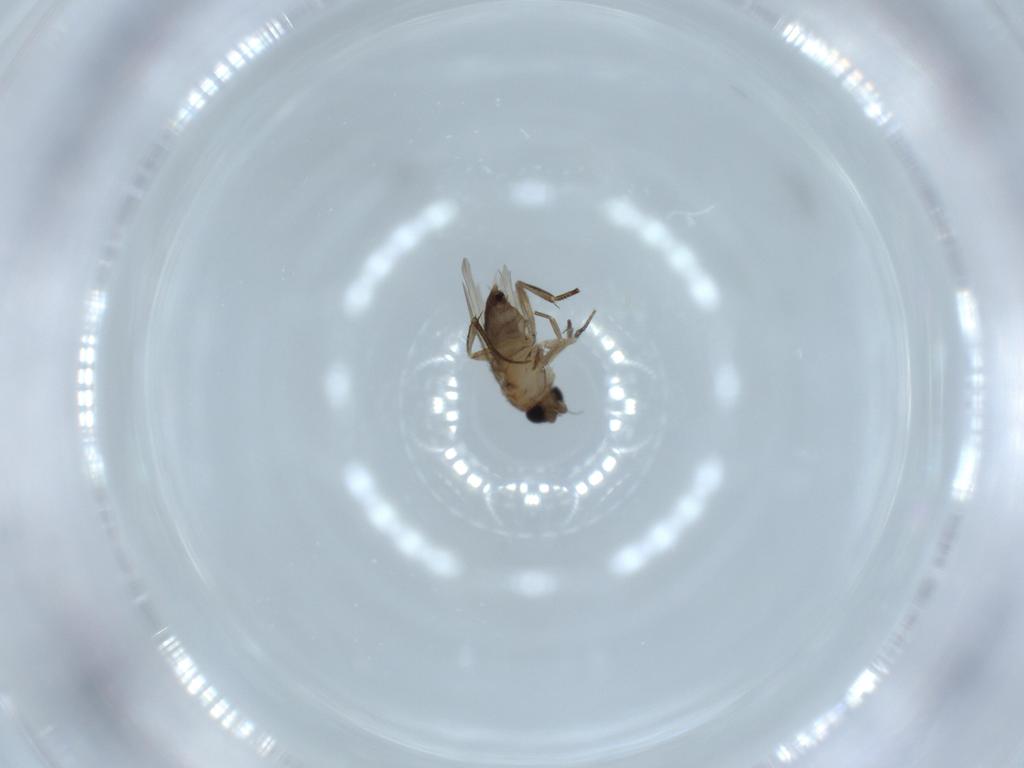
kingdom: Animalia
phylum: Arthropoda
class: Insecta
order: Diptera
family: Phoridae
